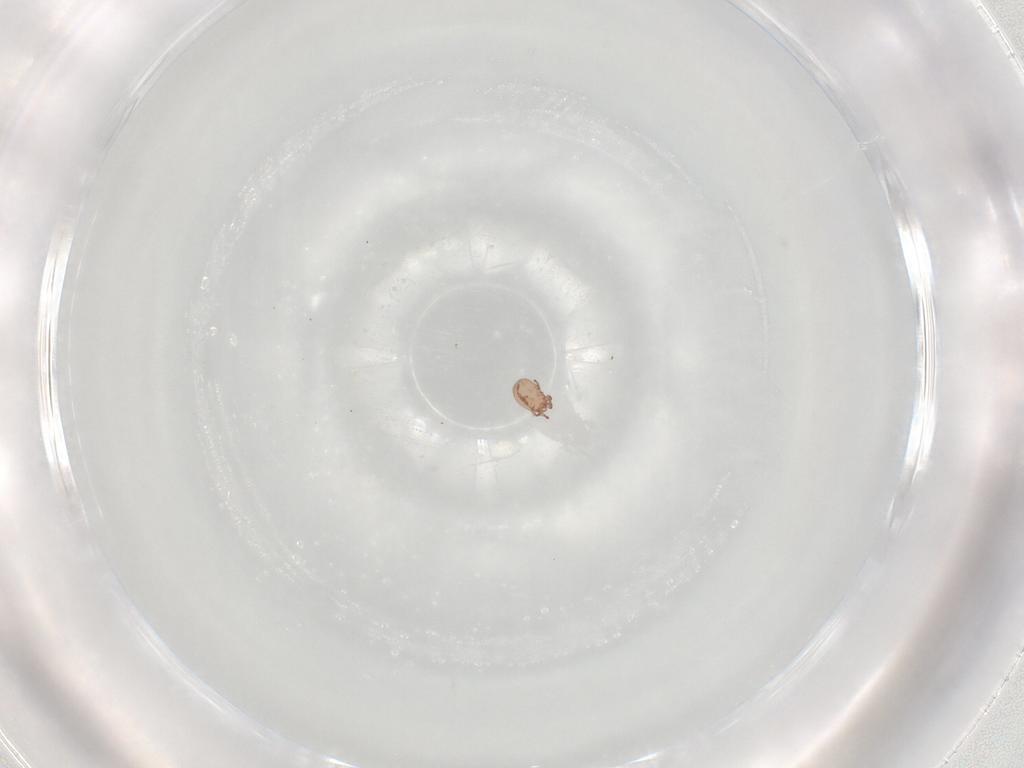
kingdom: Animalia
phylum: Arthropoda
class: Arachnida
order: Sarcoptiformes
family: Eremaeidae
